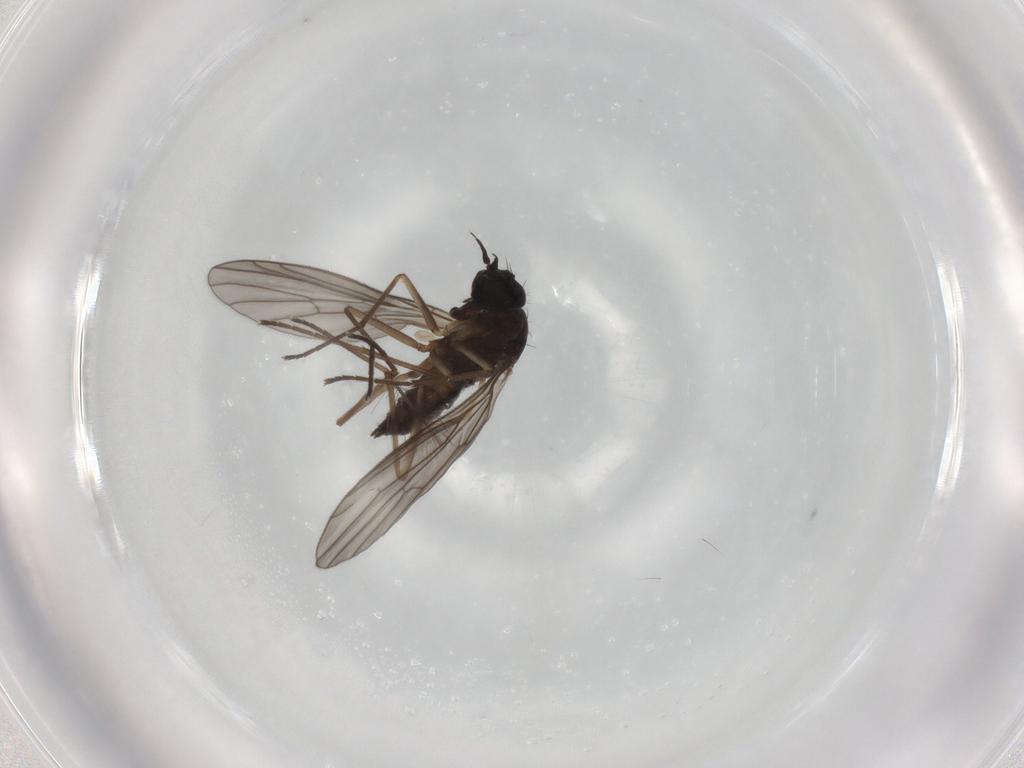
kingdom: Animalia
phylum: Arthropoda
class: Insecta
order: Diptera
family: Empididae
